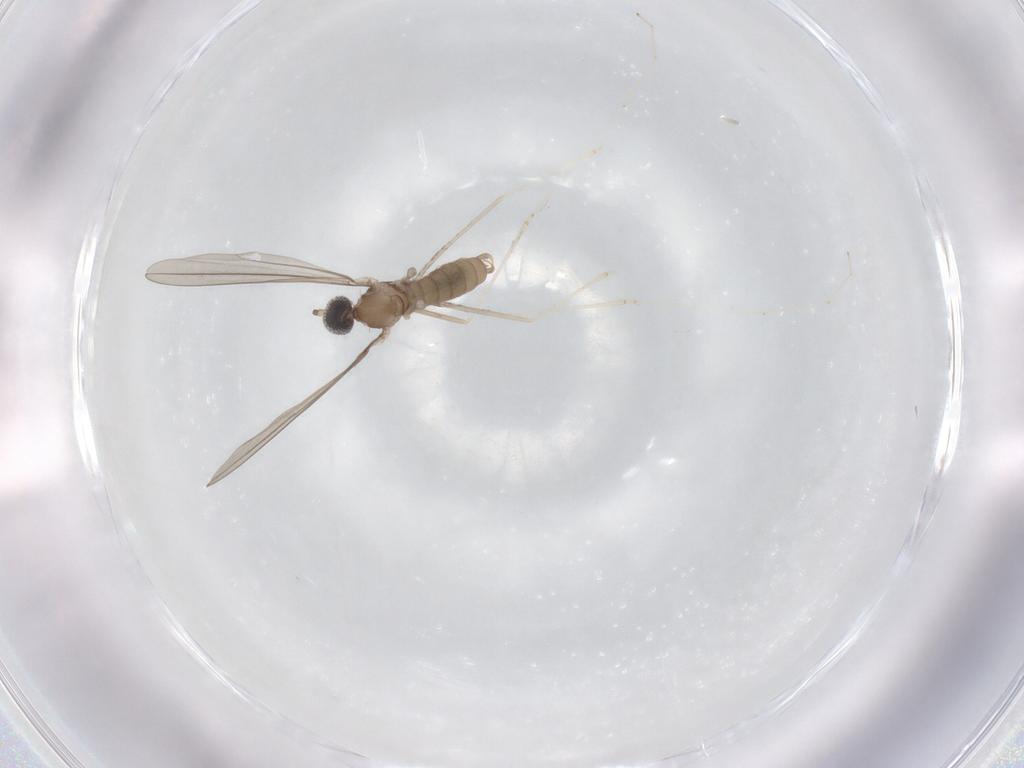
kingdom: Animalia
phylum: Arthropoda
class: Insecta
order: Diptera
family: Cecidomyiidae
